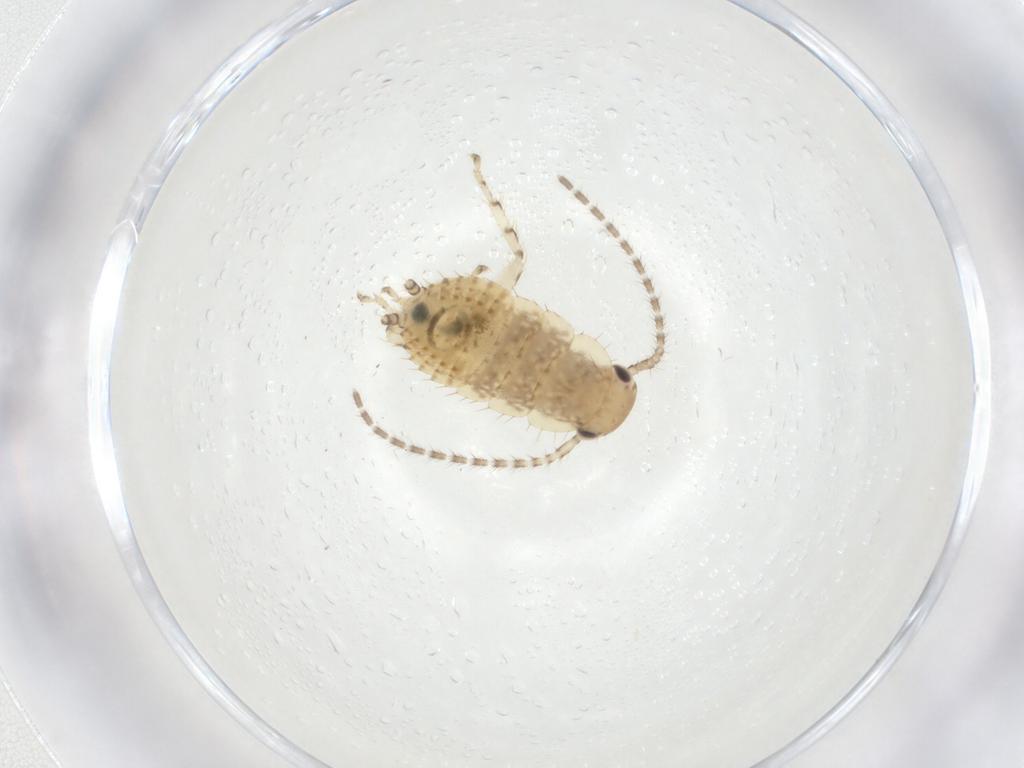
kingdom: Animalia
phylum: Arthropoda
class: Insecta
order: Blattodea
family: Ectobiidae
